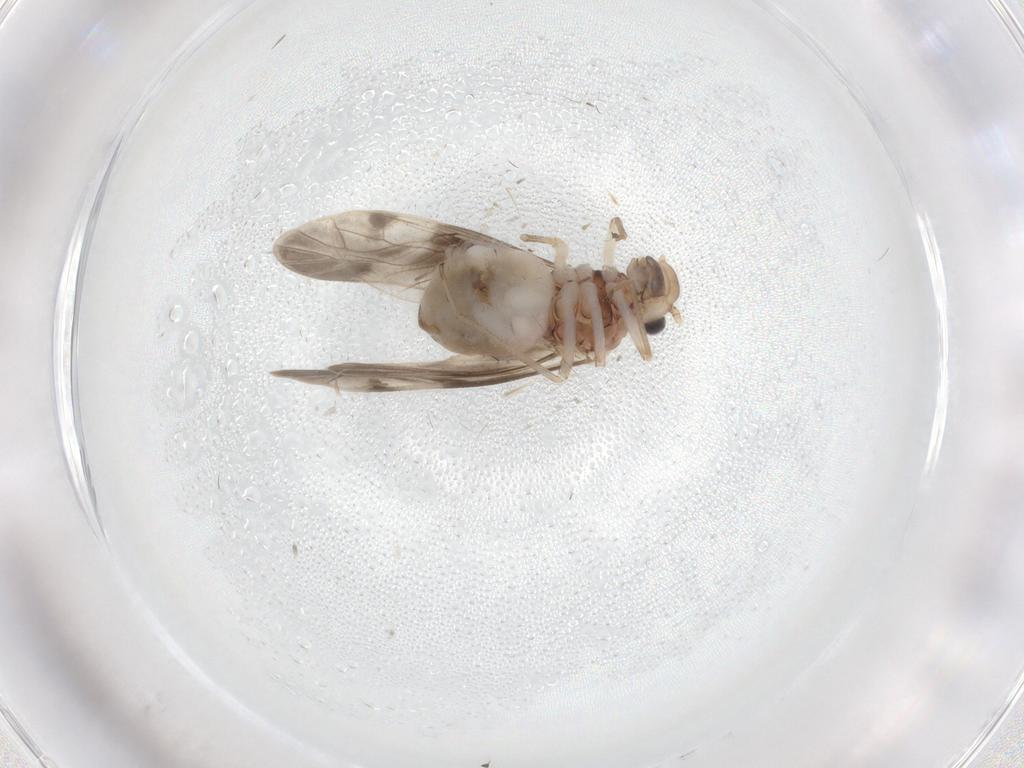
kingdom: Animalia
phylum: Arthropoda
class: Insecta
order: Psocodea
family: Caeciliusidae
